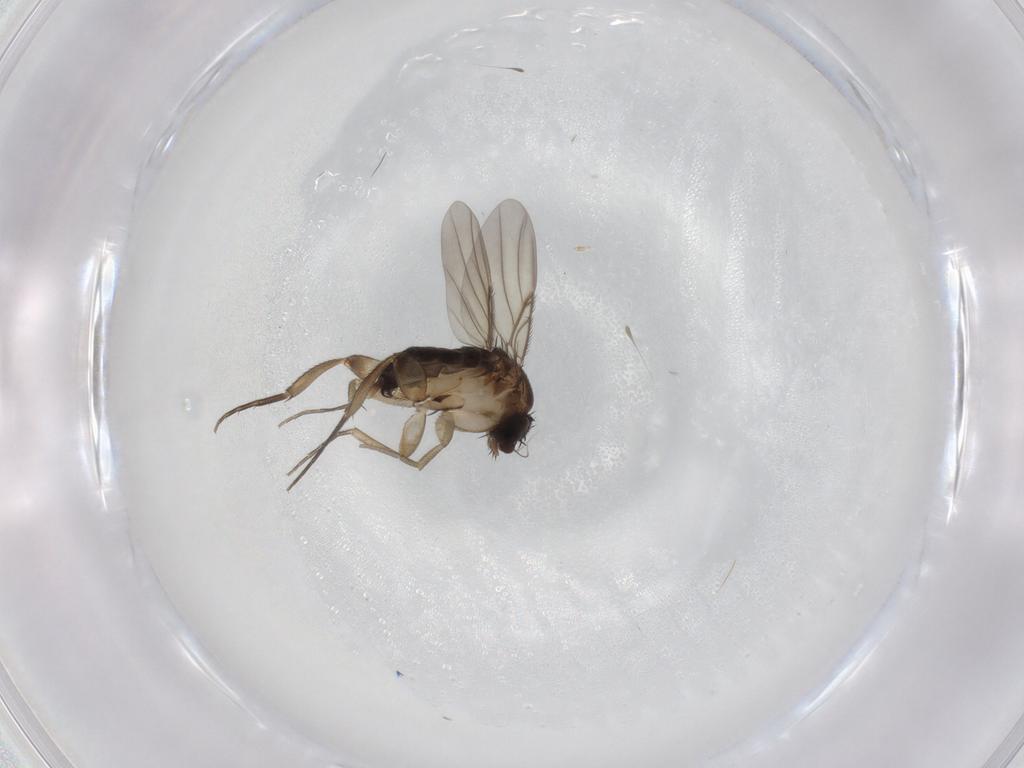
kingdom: Animalia
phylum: Arthropoda
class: Insecta
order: Diptera
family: Phoridae
